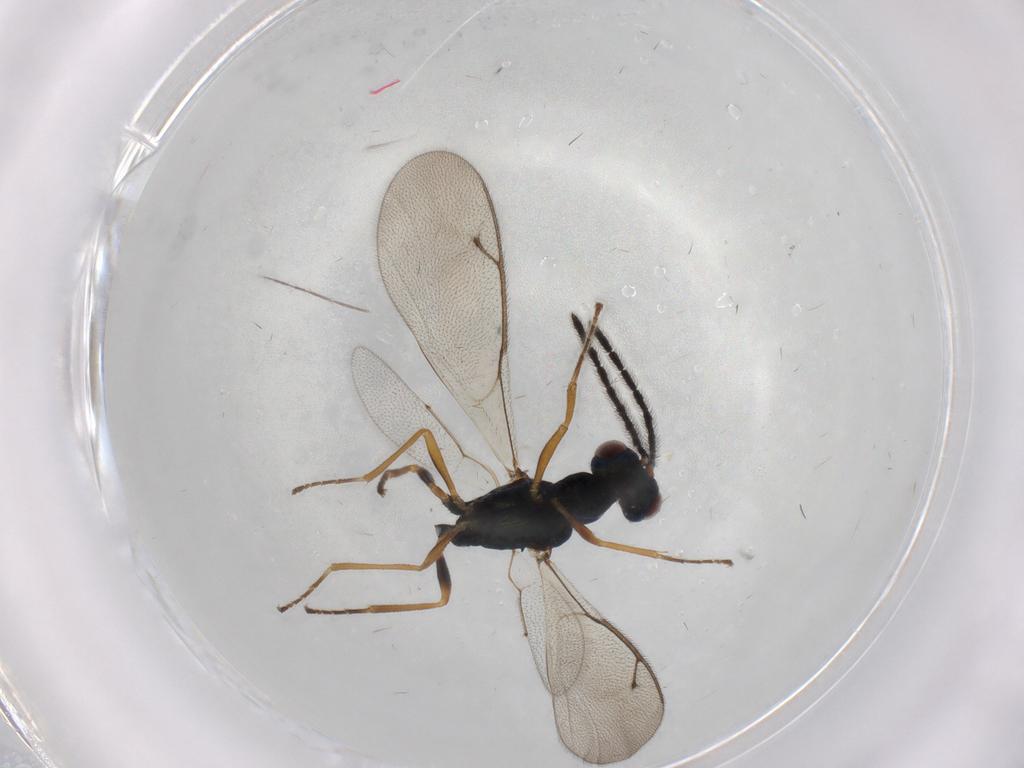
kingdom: Animalia
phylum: Arthropoda
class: Insecta
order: Hymenoptera
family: Pteromalidae
